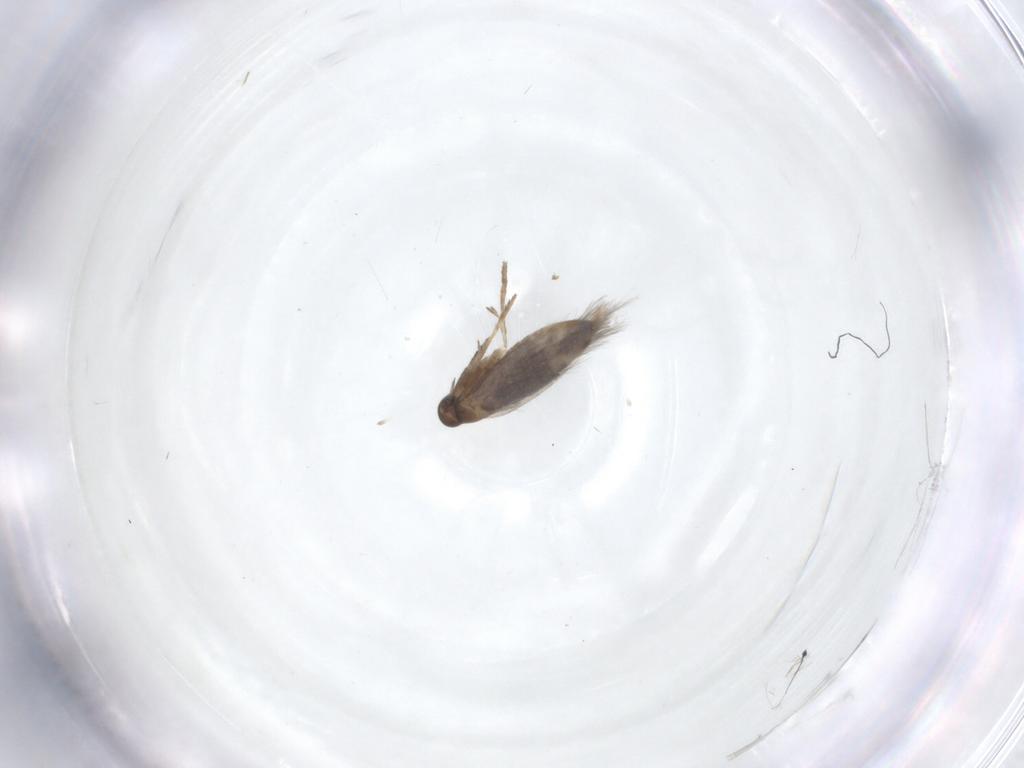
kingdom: Animalia
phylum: Arthropoda
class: Insecta
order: Lepidoptera
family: Heliozelidae
